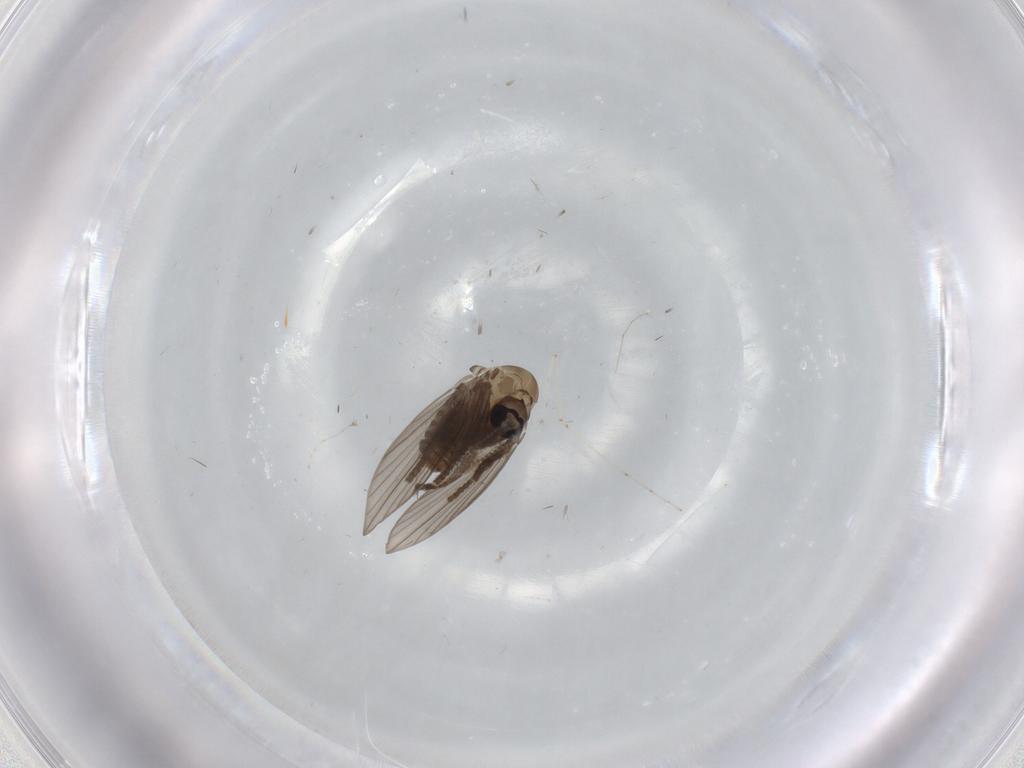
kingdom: Animalia
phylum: Arthropoda
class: Insecta
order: Diptera
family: Psychodidae
